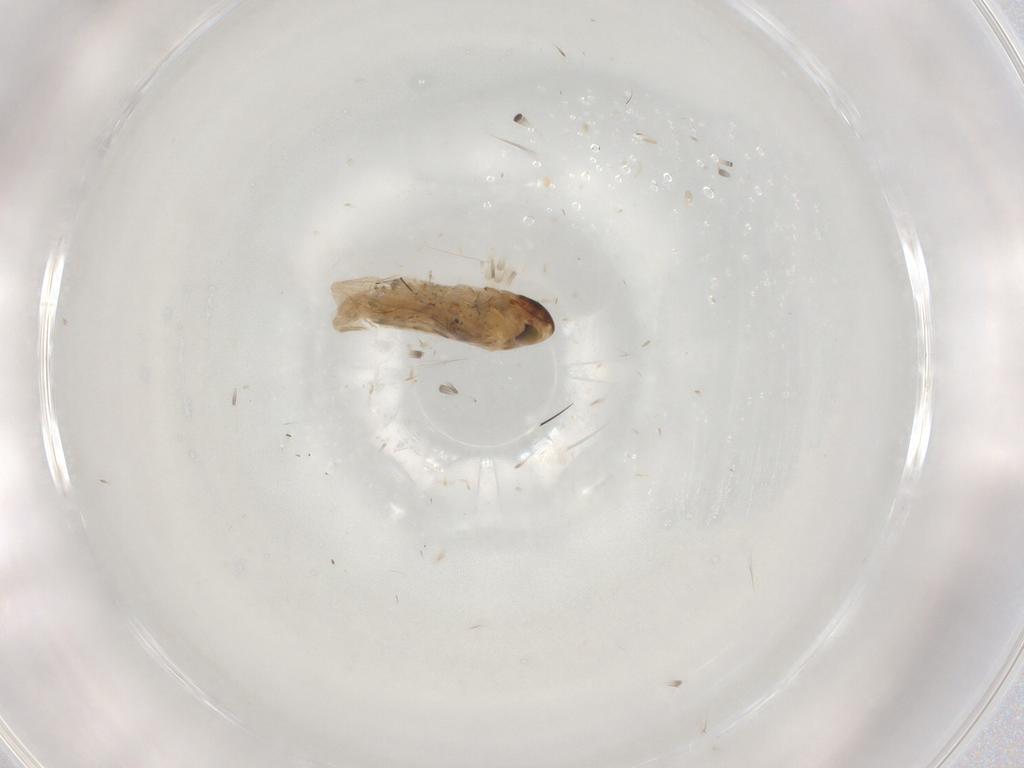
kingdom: Animalia
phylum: Arthropoda
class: Insecta
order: Hemiptera
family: Cicadellidae
